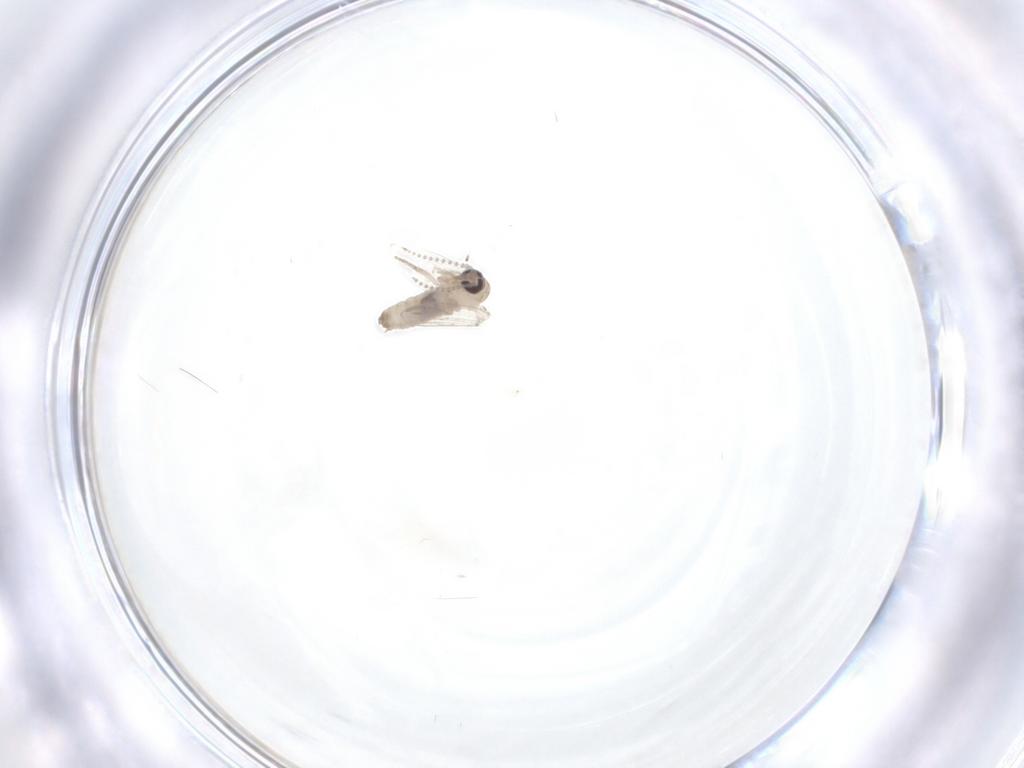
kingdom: Animalia
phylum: Arthropoda
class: Insecta
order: Diptera
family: Psychodidae
